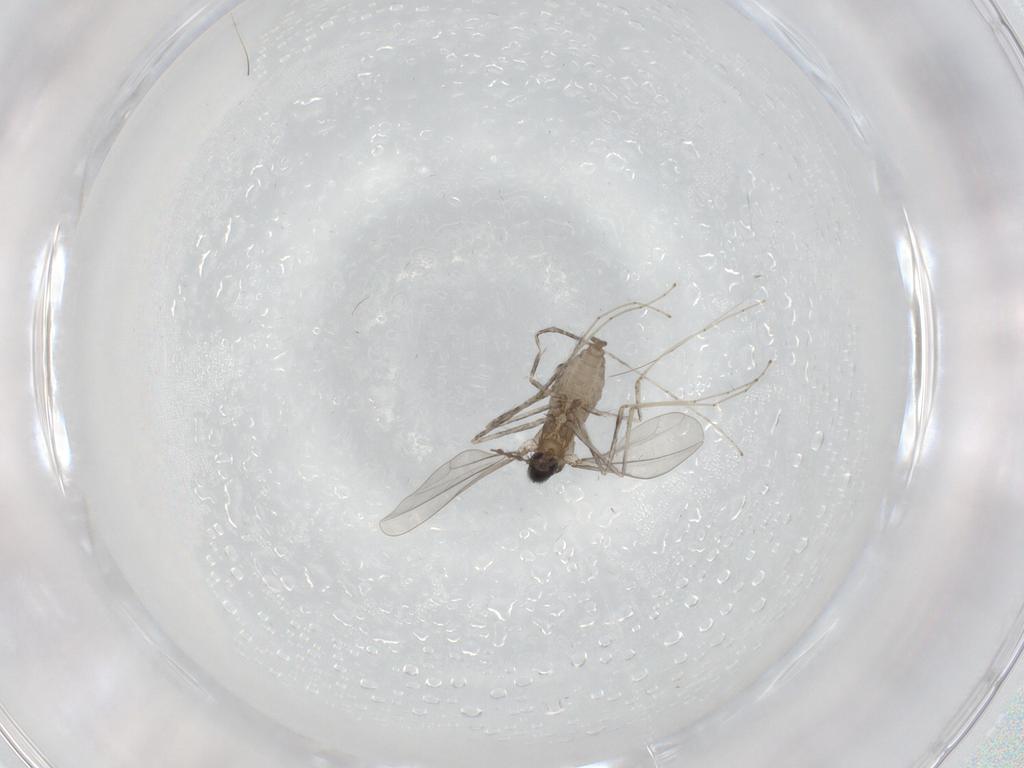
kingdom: Animalia
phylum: Arthropoda
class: Insecta
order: Diptera
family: Cecidomyiidae
